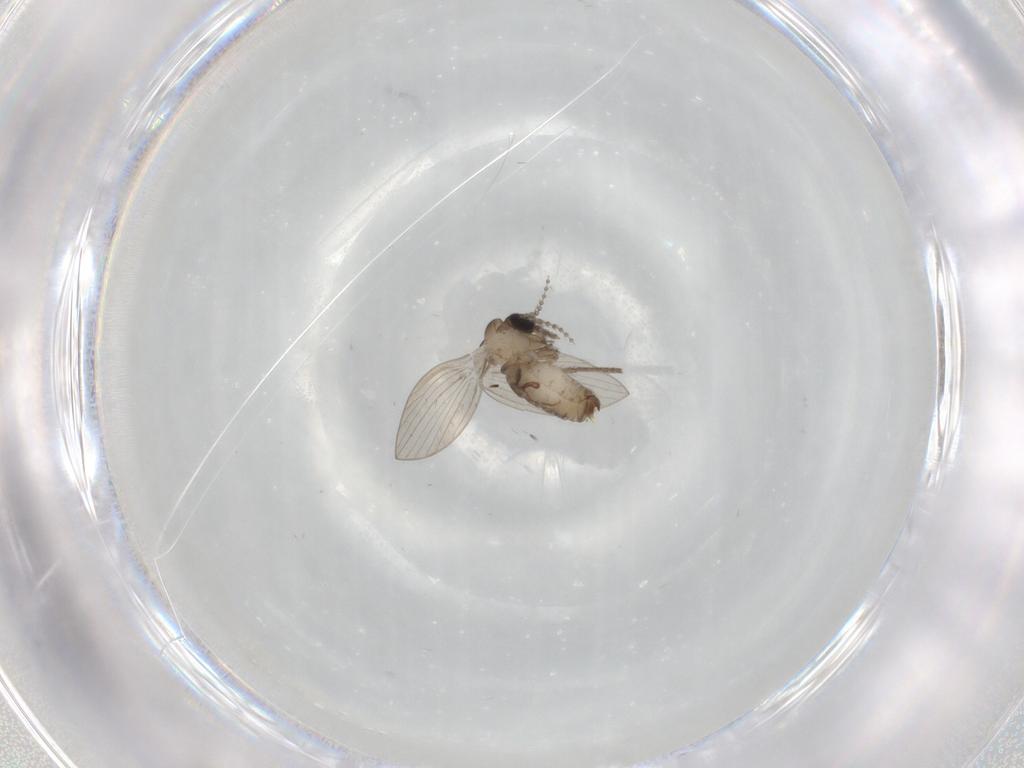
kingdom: Animalia
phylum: Arthropoda
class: Insecta
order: Diptera
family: Psychodidae
